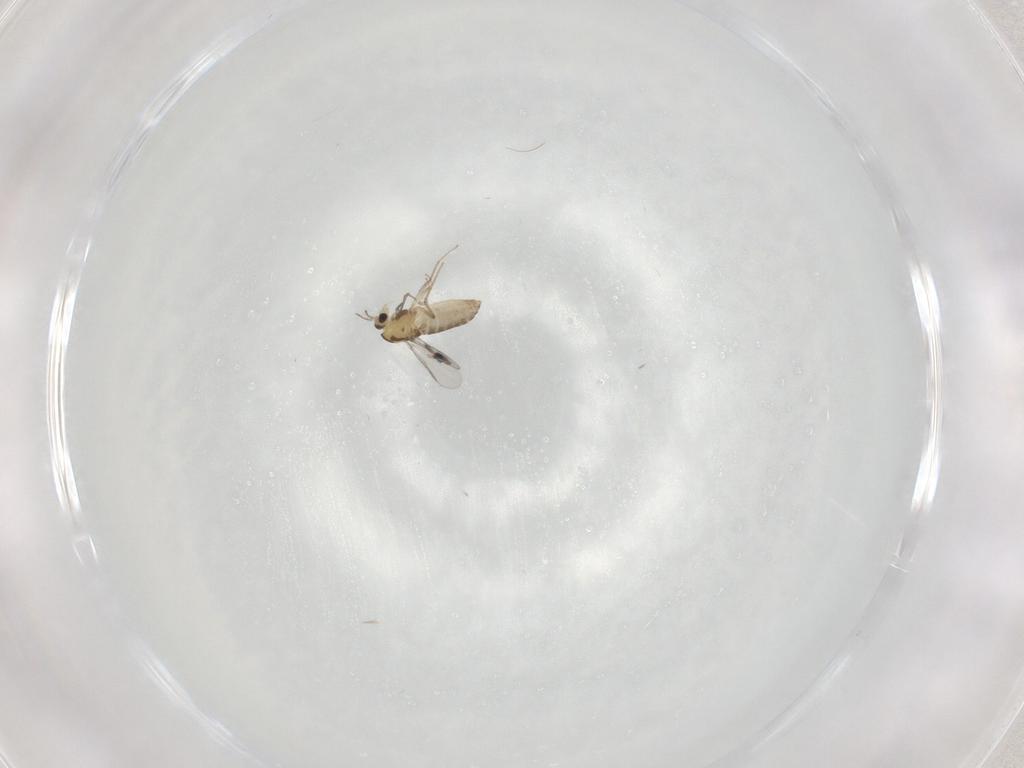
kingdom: Animalia
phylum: Arthropoda
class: Insecta
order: Diptera
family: Chironomidae
